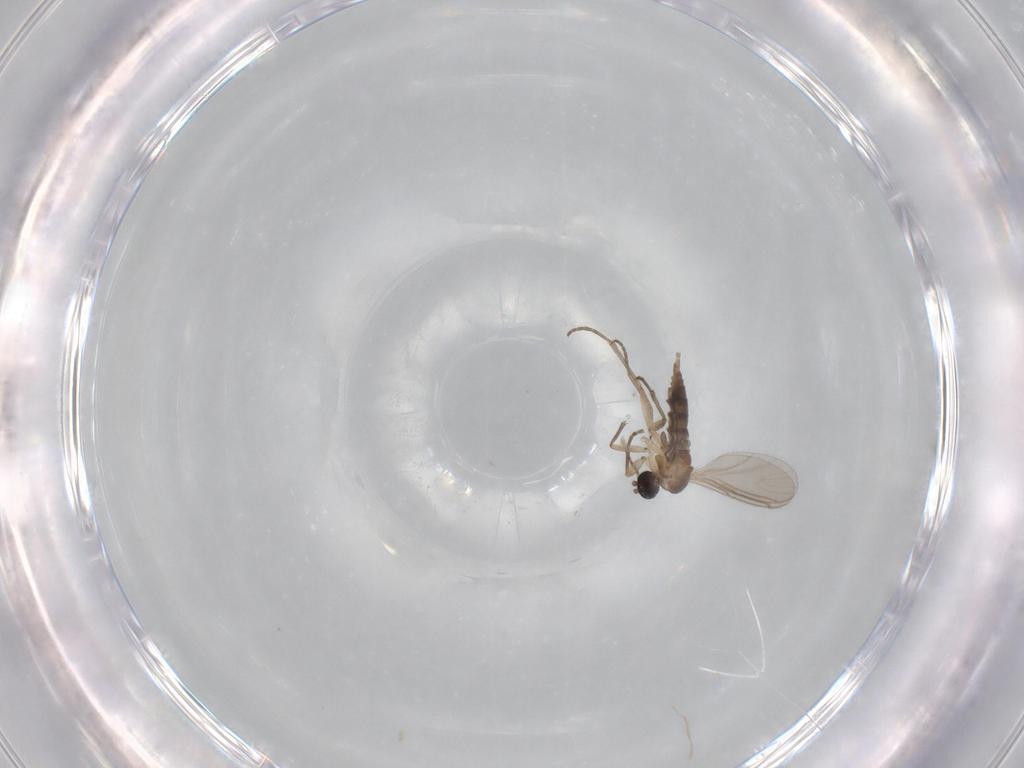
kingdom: Animalia
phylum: Arthropoda
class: Insecta
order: Diptera
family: Sciaridae
